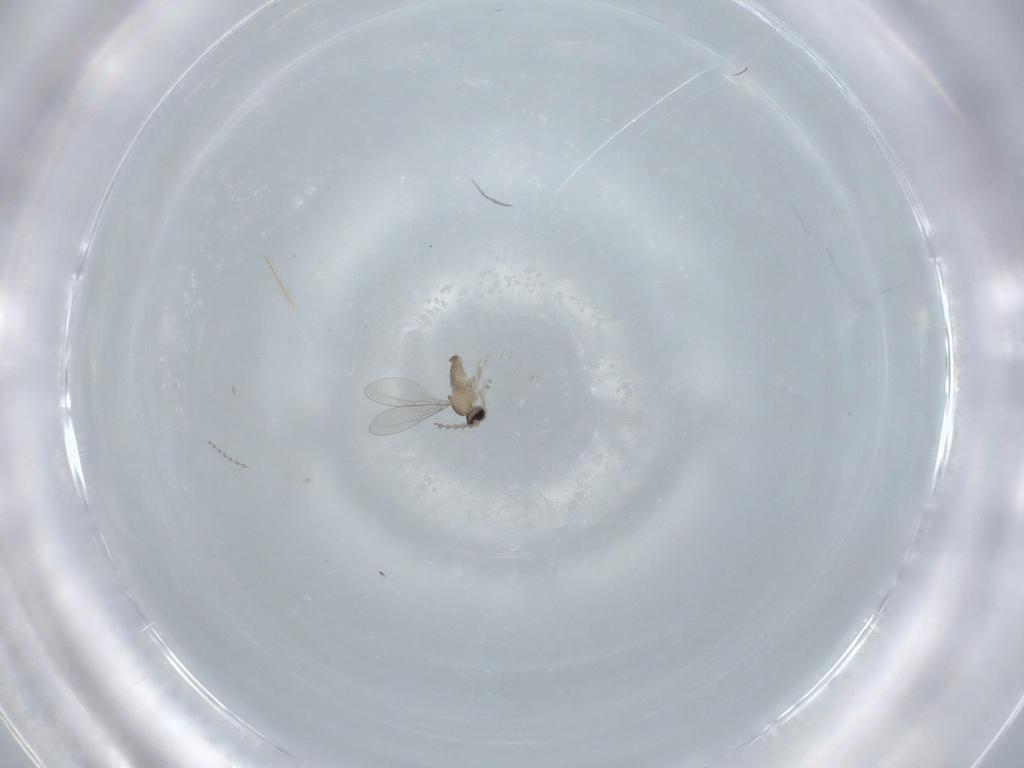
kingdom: Animalia
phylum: Arthropoda
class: Insecta
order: Diptera
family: Cecidomyiidae
